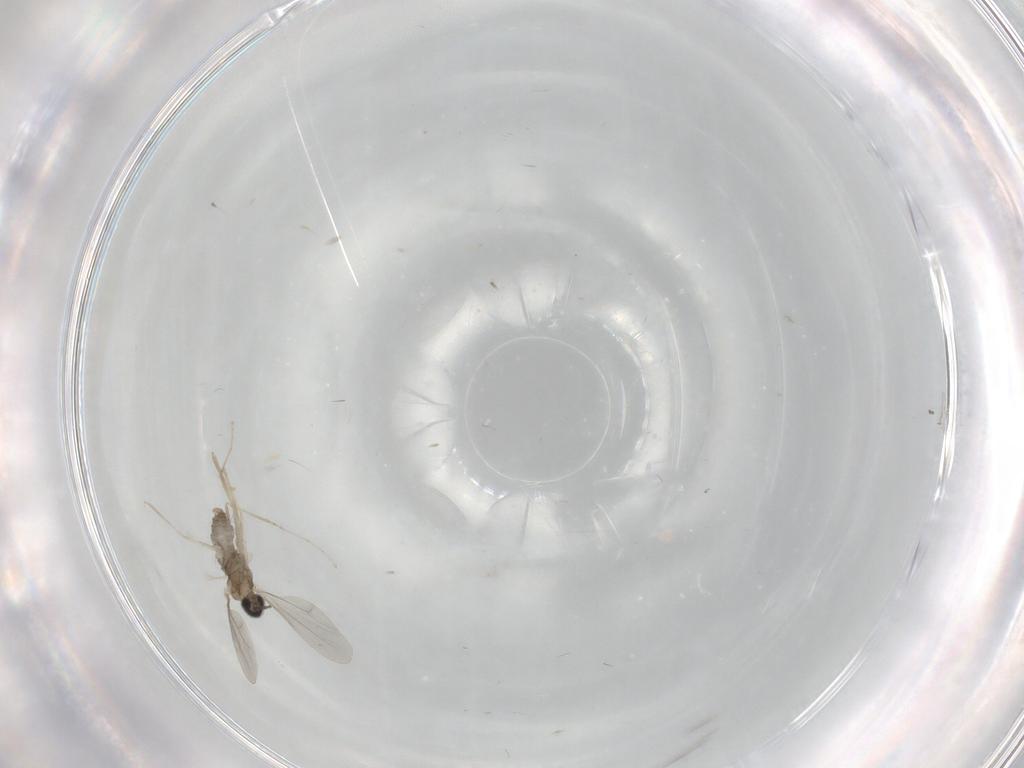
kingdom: Animalia
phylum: Arthropoda
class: Insecta
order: Diptera
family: Cecidomyiidae
